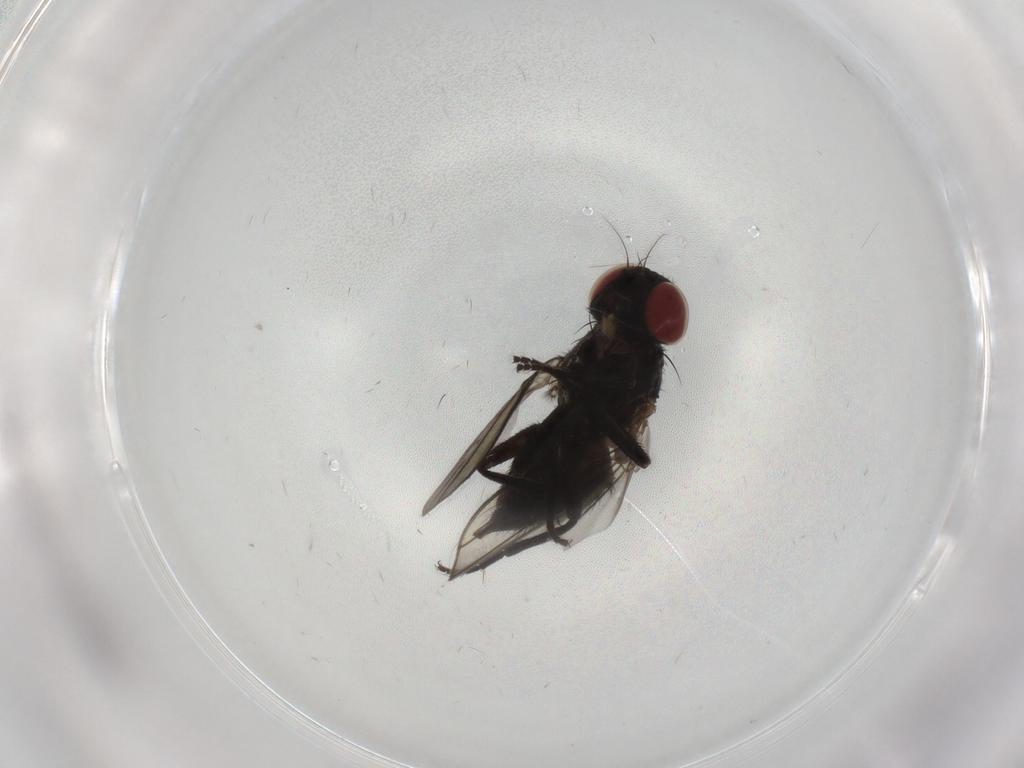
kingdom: Animalia
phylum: Arthropoda
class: Insecta
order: Diptera
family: Agromyzidae
